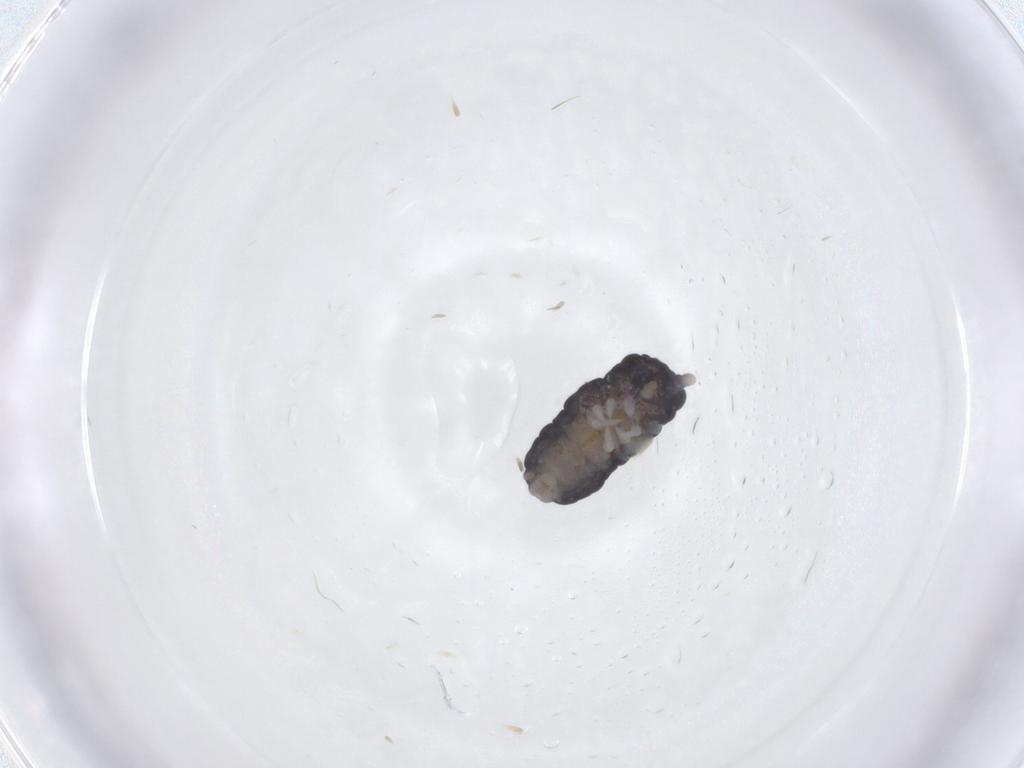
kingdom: Animalia
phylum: Arthropoda
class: Collembola
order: Poduromorpha
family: Neanuridae
